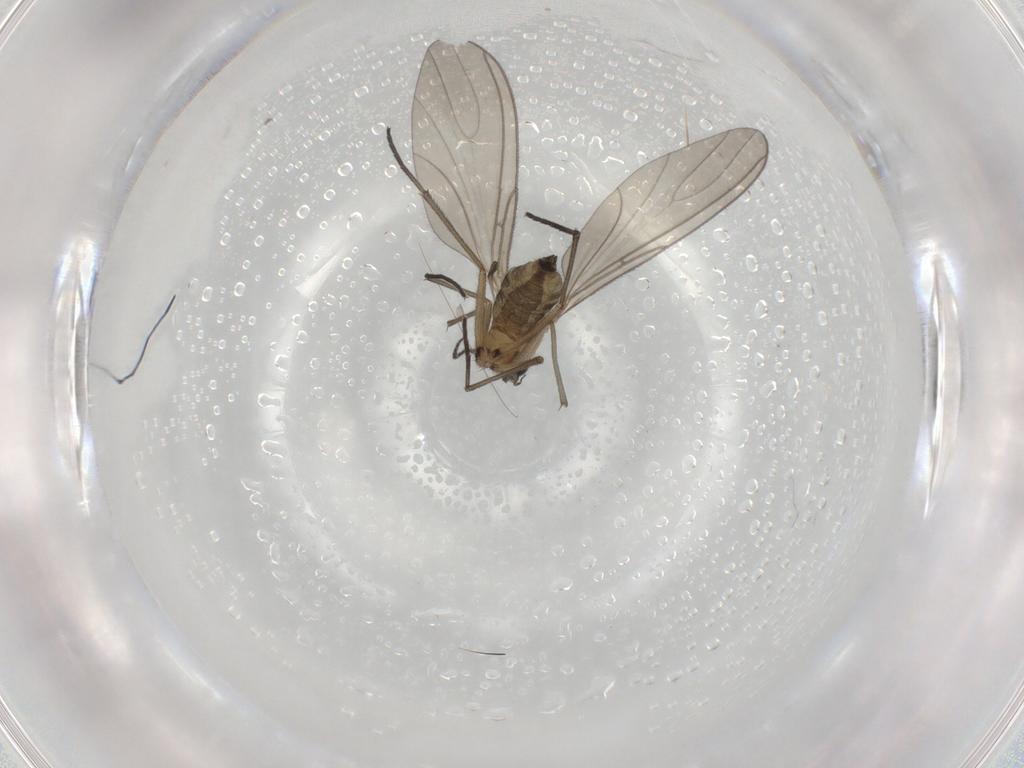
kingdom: Animalia
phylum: Arthropoda
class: Insecta
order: Diptera
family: Sciaridae
